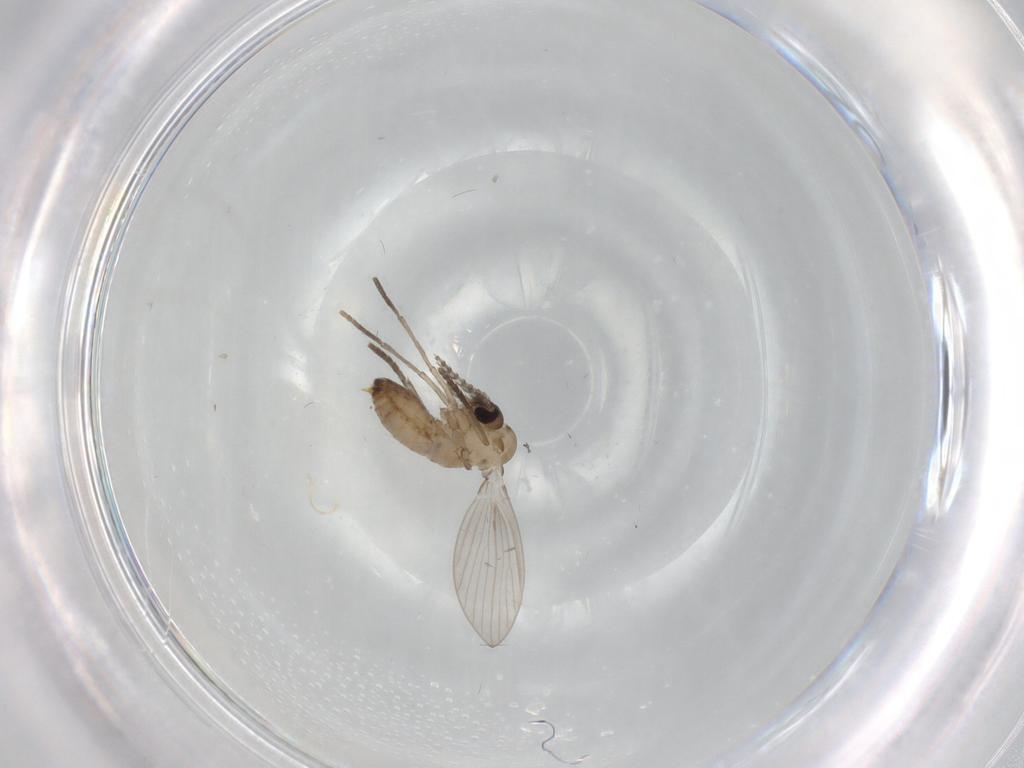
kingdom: Animalia
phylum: Arthropoda
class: Insecta
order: Diptera
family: Psychodidae
